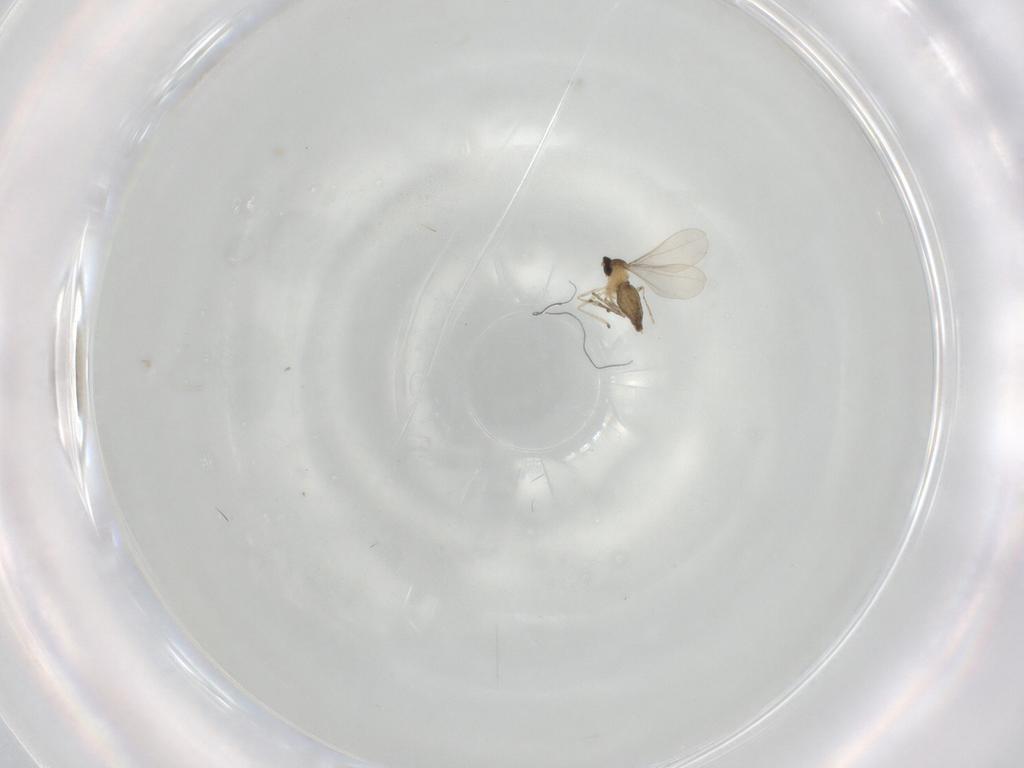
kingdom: Animalia
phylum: Arthropoda
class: Insecta
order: Diptera
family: Cecidomyiidae
